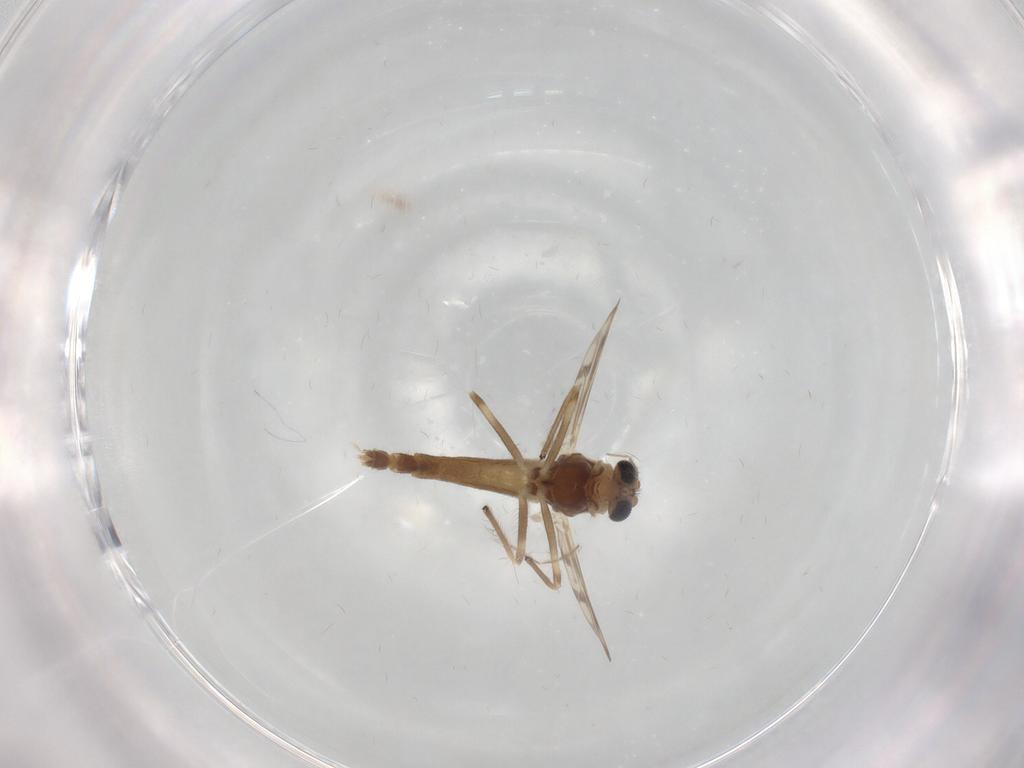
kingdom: Animalia
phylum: Arthropoda
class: Insecta
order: Diptera
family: Chironomidae
